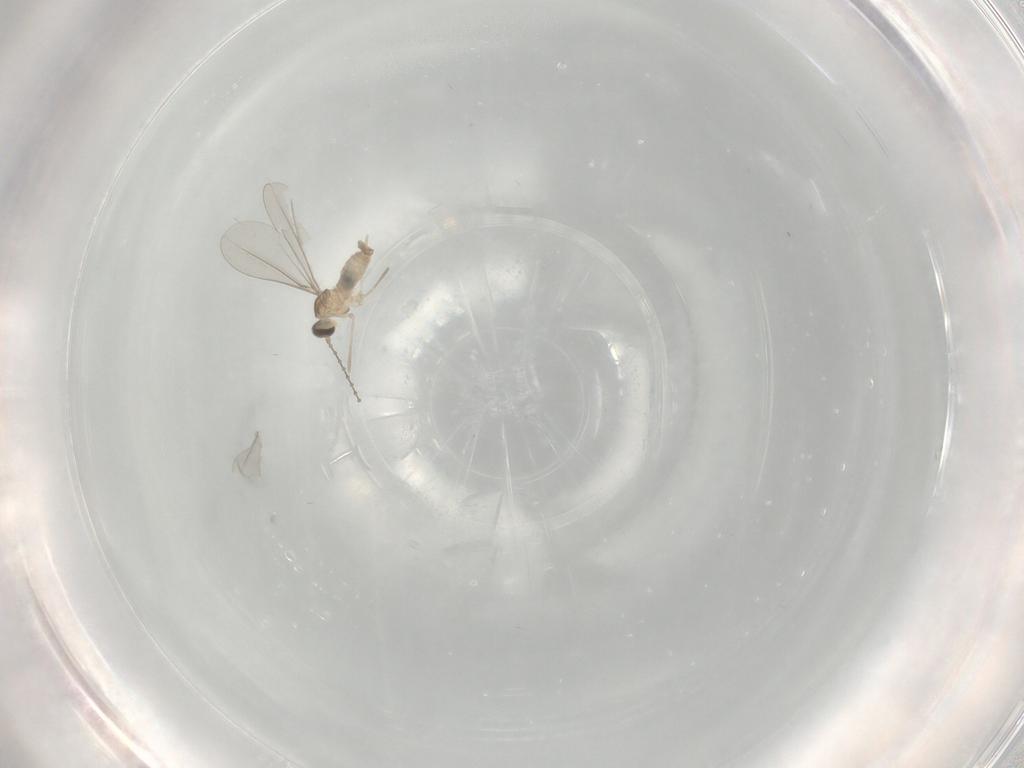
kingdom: Animalia
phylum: Arthropoda
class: Insecta
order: Diptera
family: Cecidomyiidae
